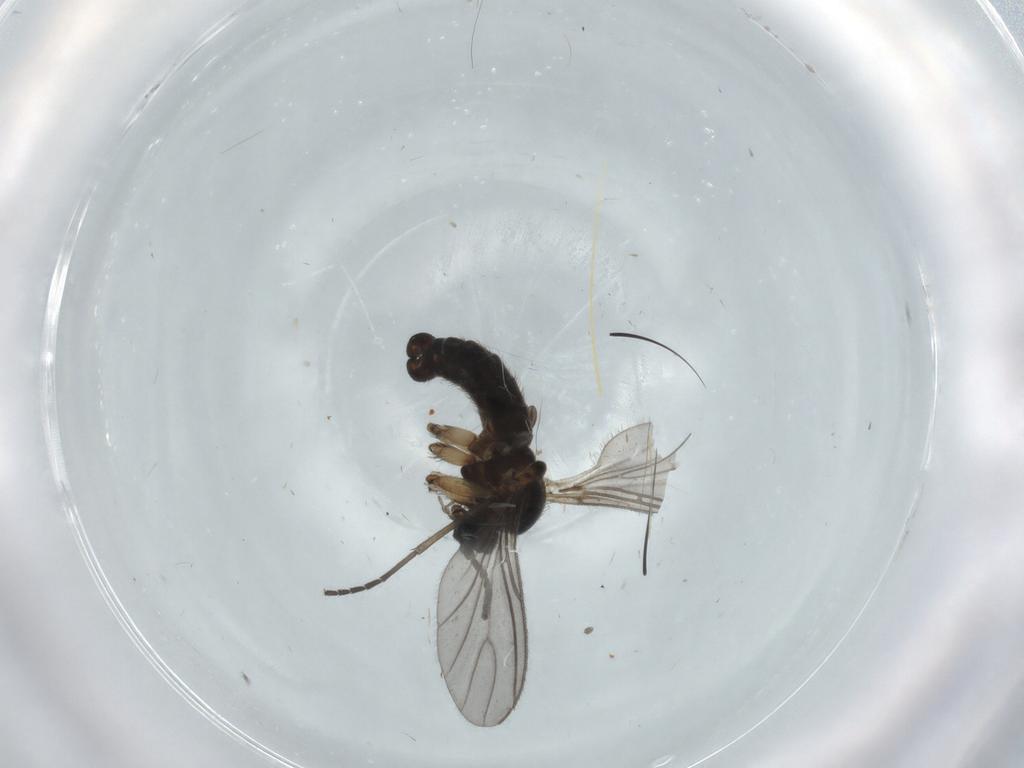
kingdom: Animalia
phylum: Arthropoda
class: Insecta
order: Diptera
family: Sciaridae
